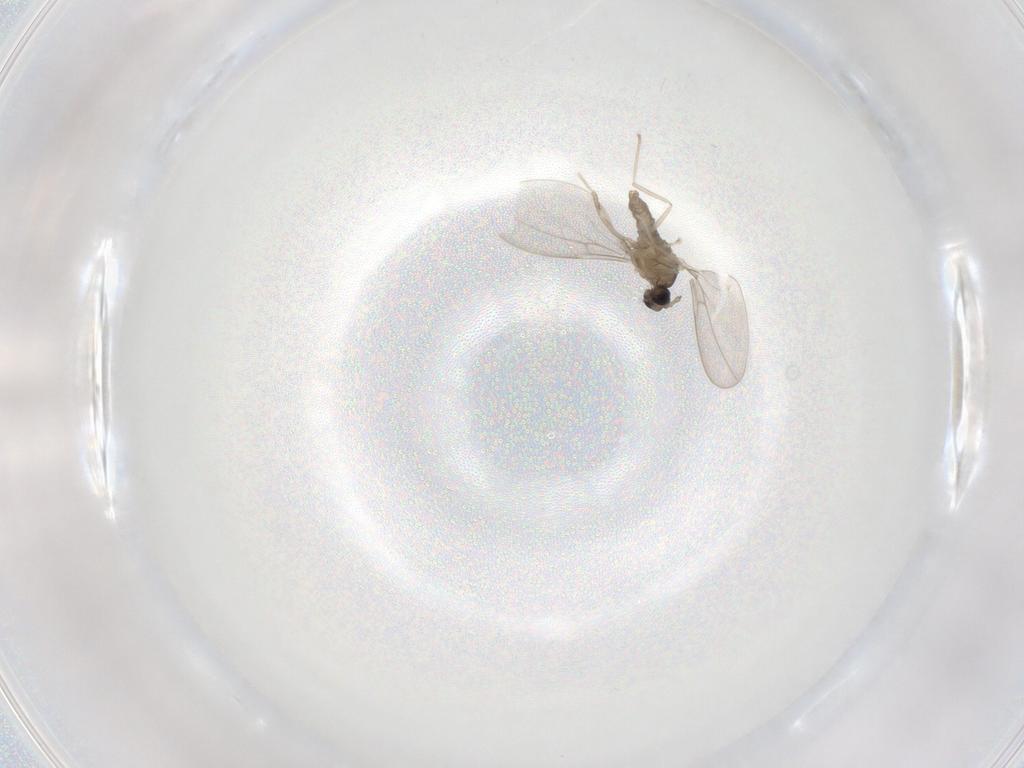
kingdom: Animalia
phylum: Arthropoda
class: Insecta
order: Diptera
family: Cecidomyiidae
